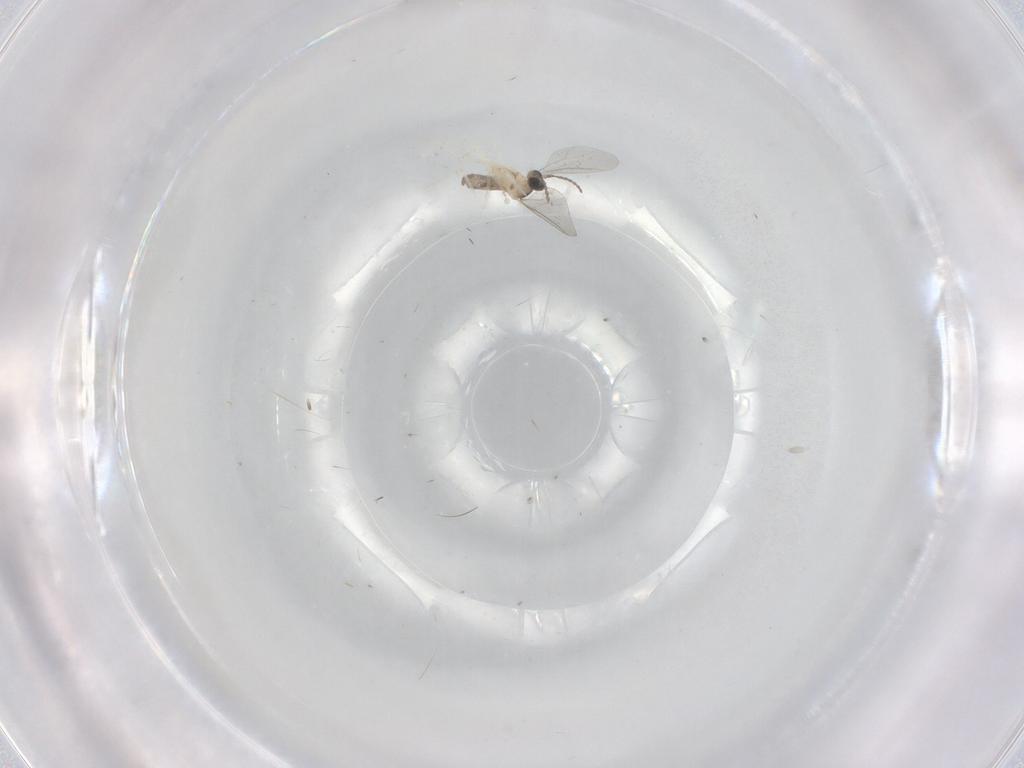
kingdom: Animalia
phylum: Arthropoda
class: Insecta
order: Diptera
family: Cecidomyiidae
